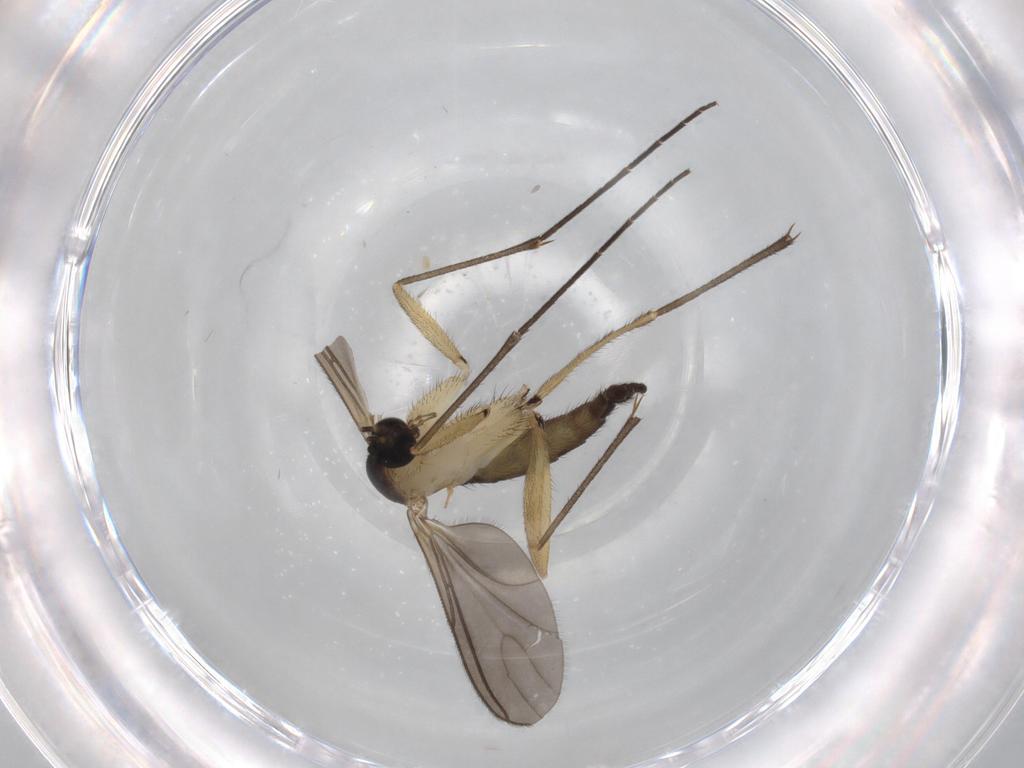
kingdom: Animalia
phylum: Arthropoda
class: Insecta
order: Diptera
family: Sciaridae
